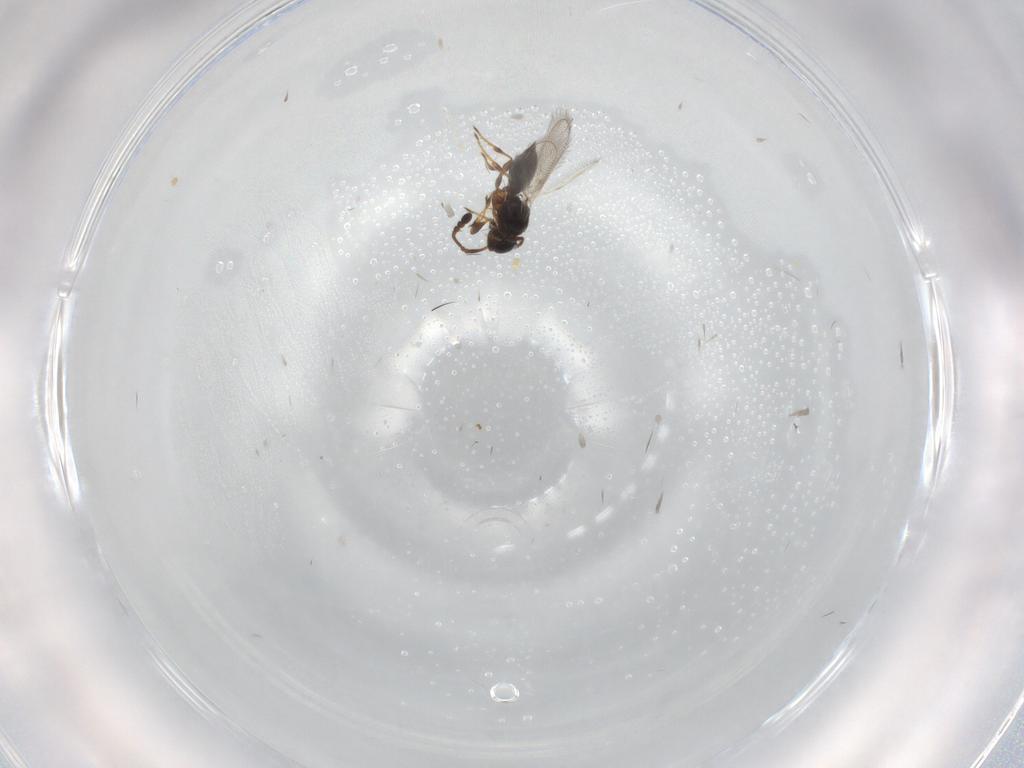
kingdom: Animalia
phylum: Arthropoda
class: Insecta
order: Hymenoptera
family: Diapriidae
